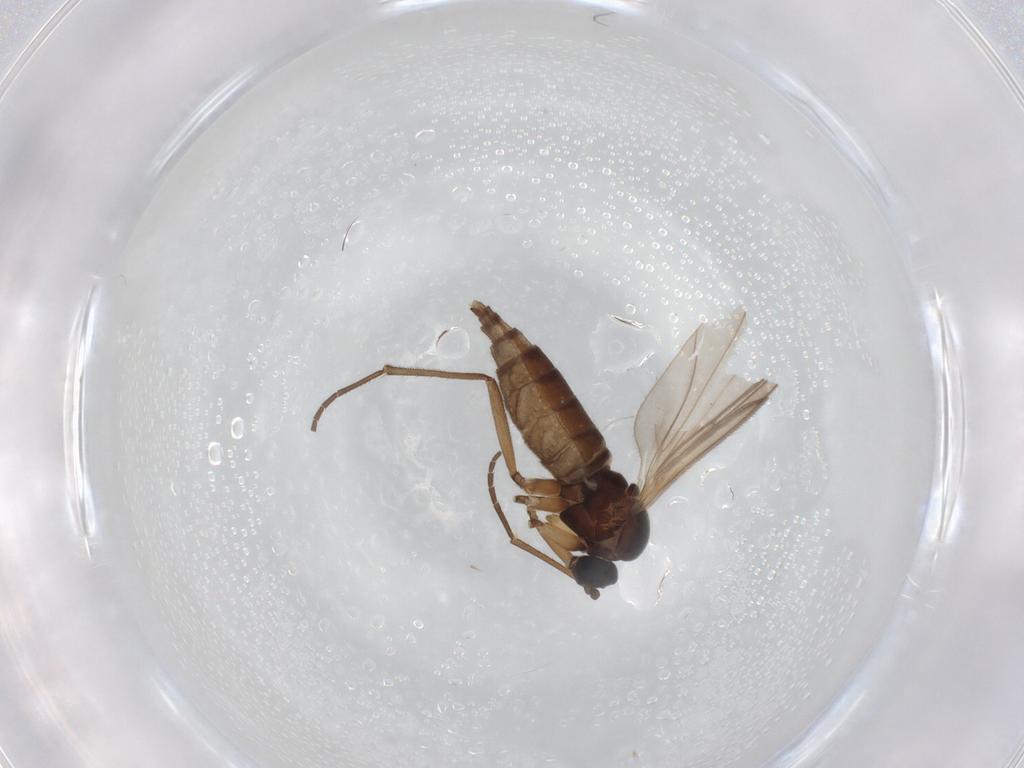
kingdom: Animalia
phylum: Arthropoda
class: Insecta
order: Diptera
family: Sciaridae
